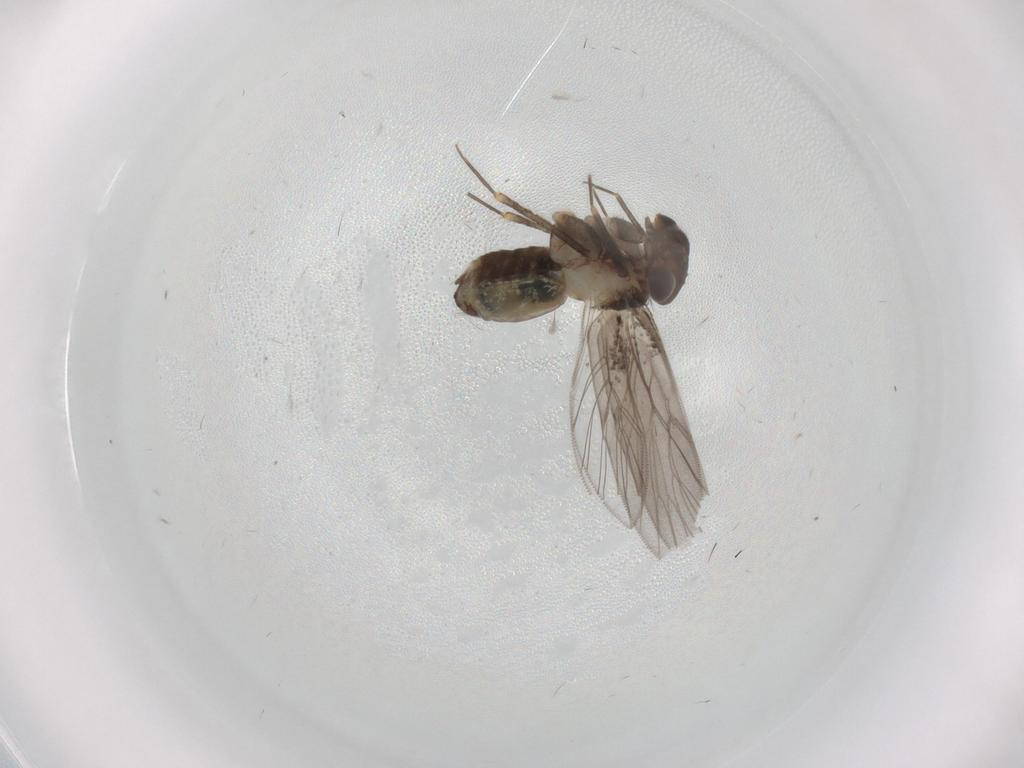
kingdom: Animalia
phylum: Arthropoda
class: Insecta
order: Psocodea
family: Lepidopsocidae
